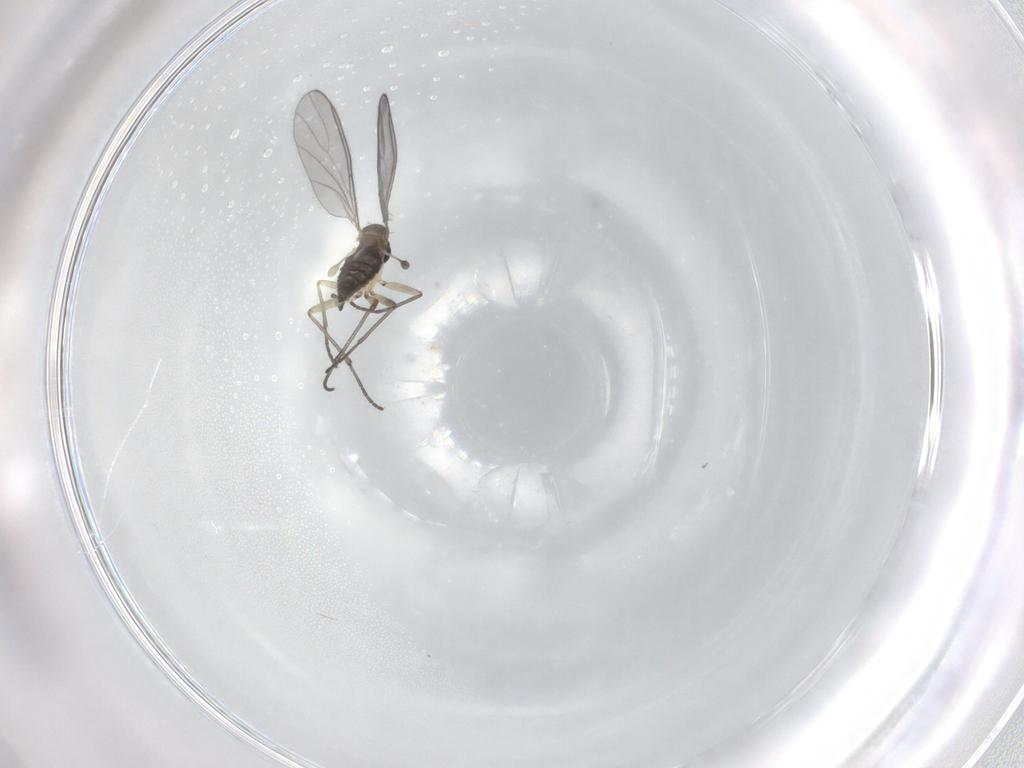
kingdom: Animalia
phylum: Arthropoda
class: Insecta
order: Diptera
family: Sciaridae
